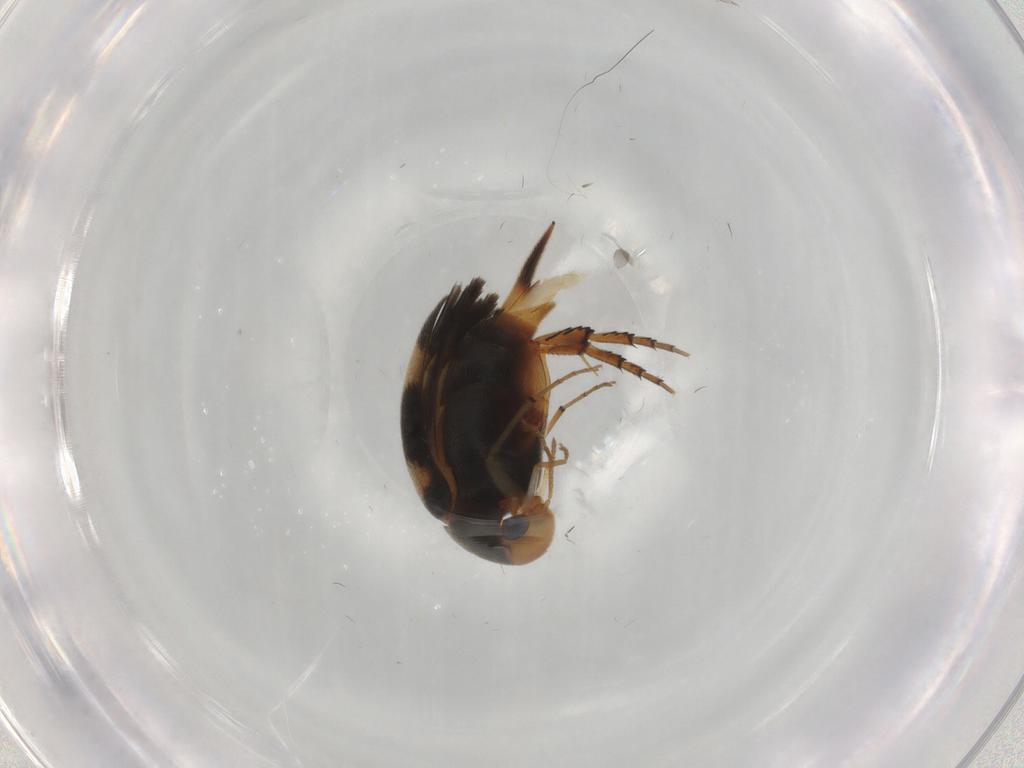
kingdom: Animalia
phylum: Arthropoda
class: Insecta
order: Coleoptera
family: Mordellidae
